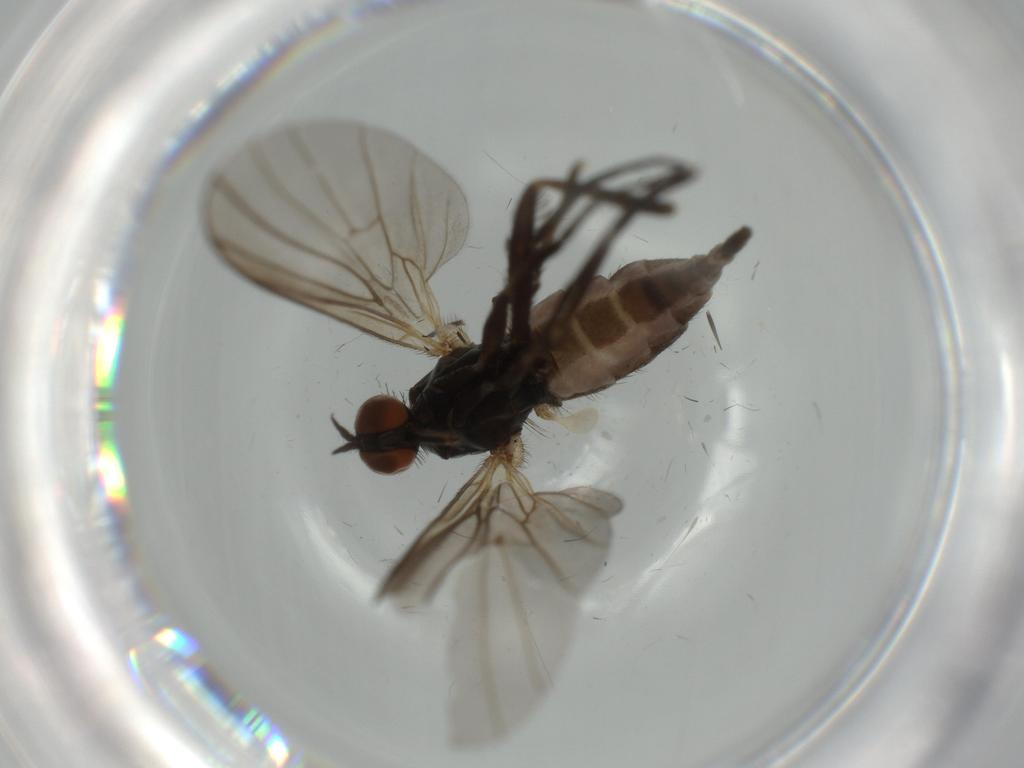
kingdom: Animalia
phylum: Arthropoda
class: Insecta
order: Diptera
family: Empididae
